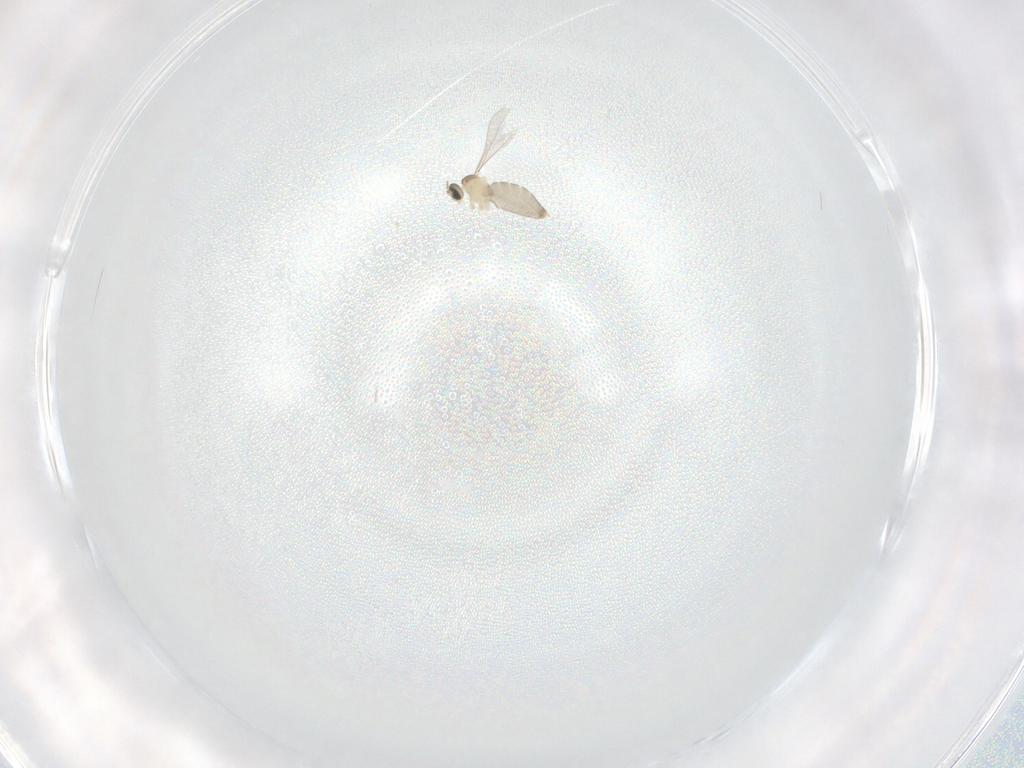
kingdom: Animalia
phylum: Arthropoda
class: Insecta
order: Diptera
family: Cecidomyiidae
